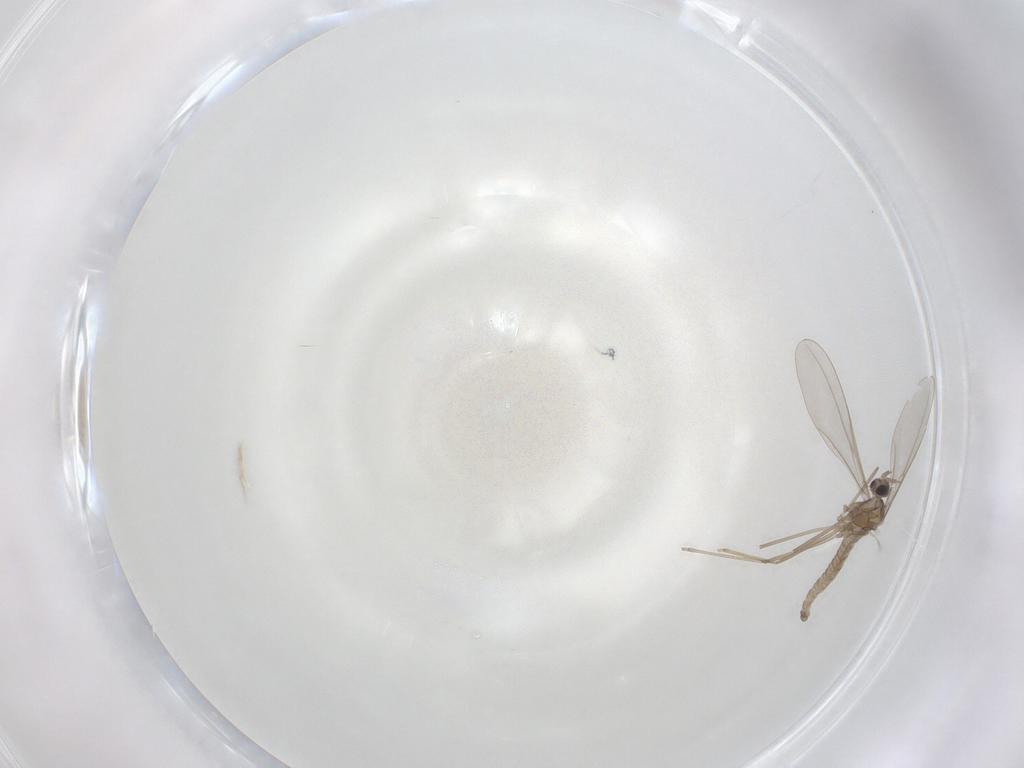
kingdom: Animalia
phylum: Arthropoda
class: Insecta
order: Diptera
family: Cecidomyiidae
